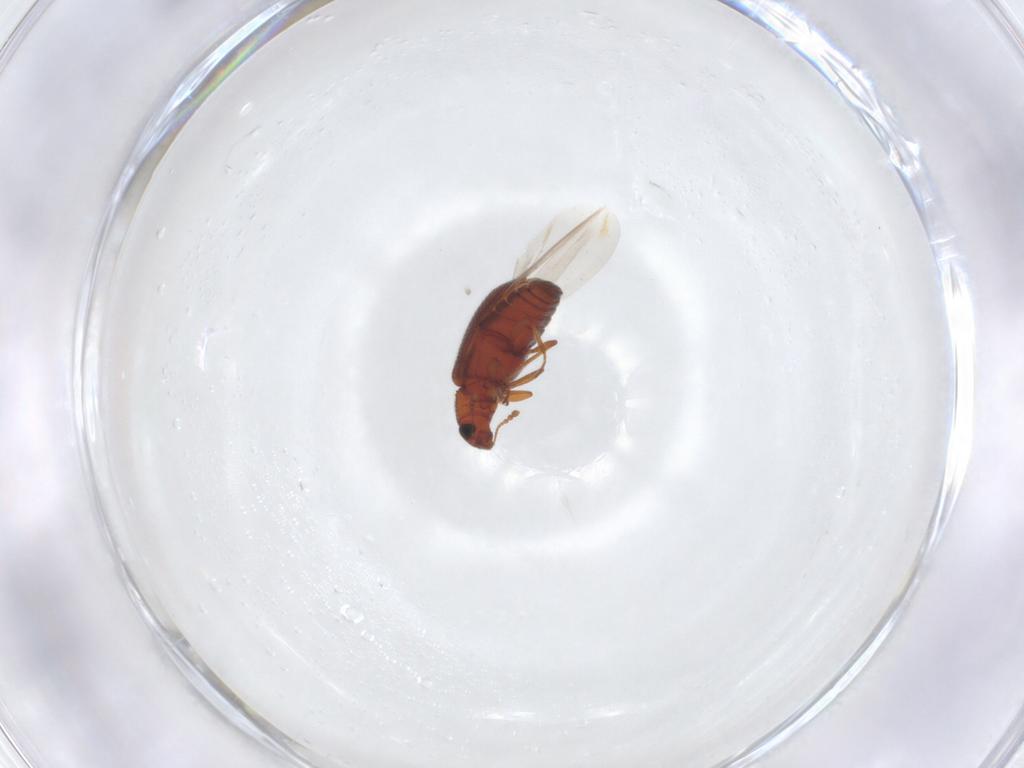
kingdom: Animalia
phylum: Arthropoda
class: Insecta
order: Coleoptera
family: Latridiidae
